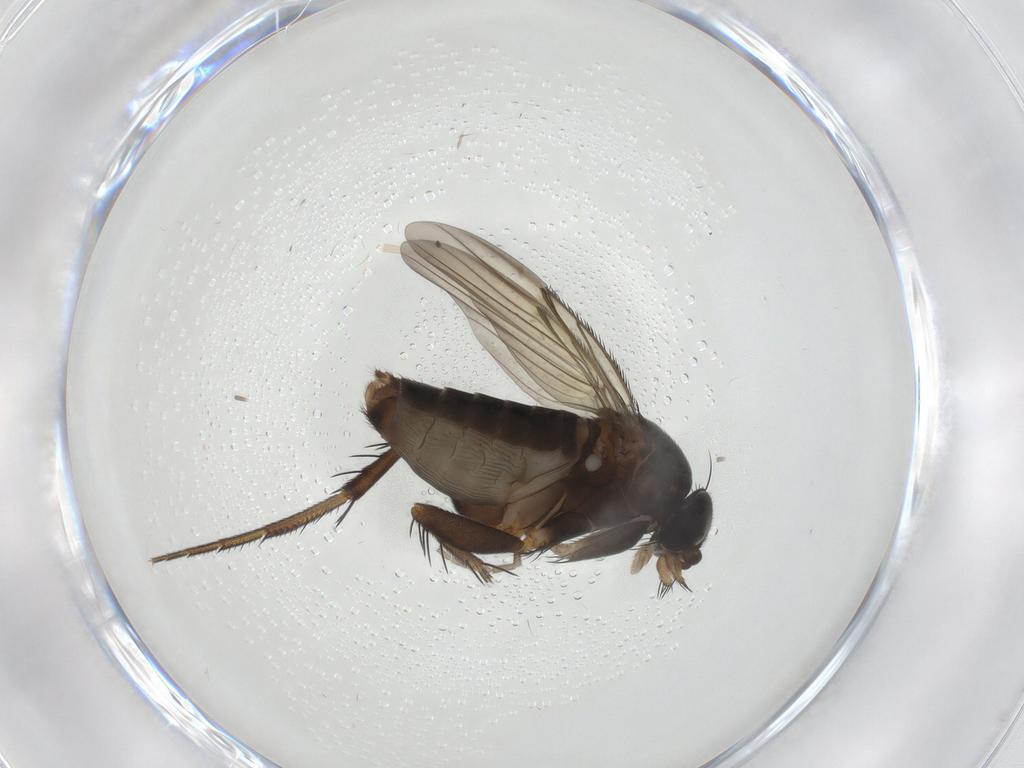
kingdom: Animalia
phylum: Arthropoda
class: Insecta
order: Diptera
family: Phoridae
